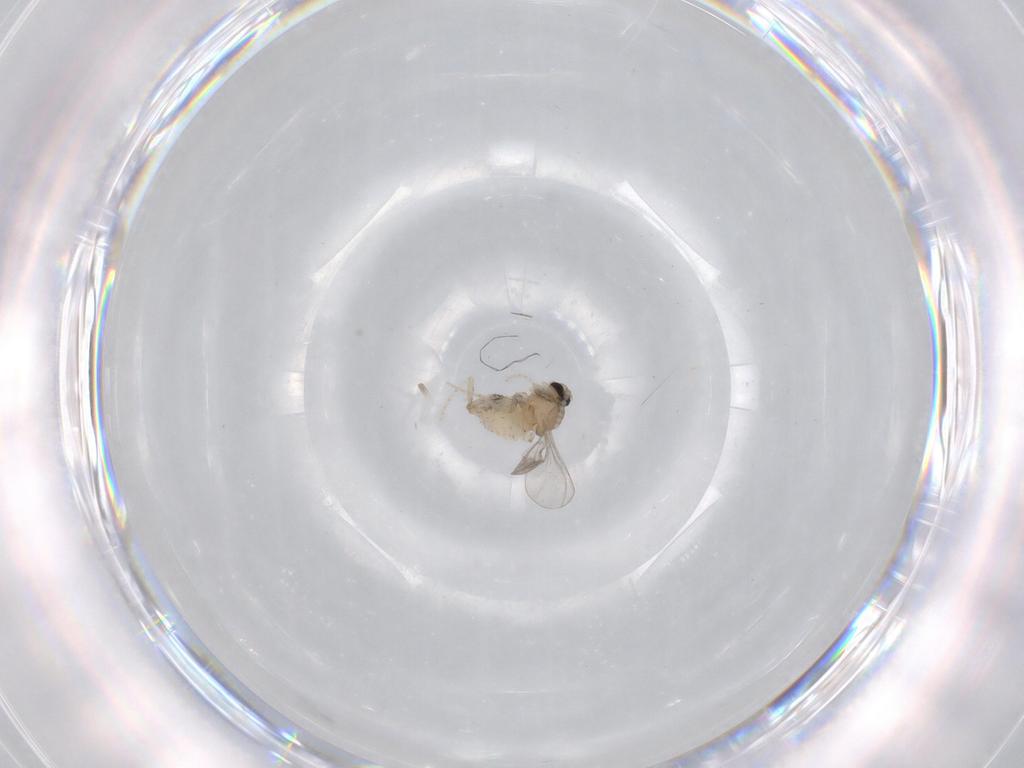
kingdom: Animalia
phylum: Arthropoda
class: Insecta
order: Diptera
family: Cecidomyiidae
